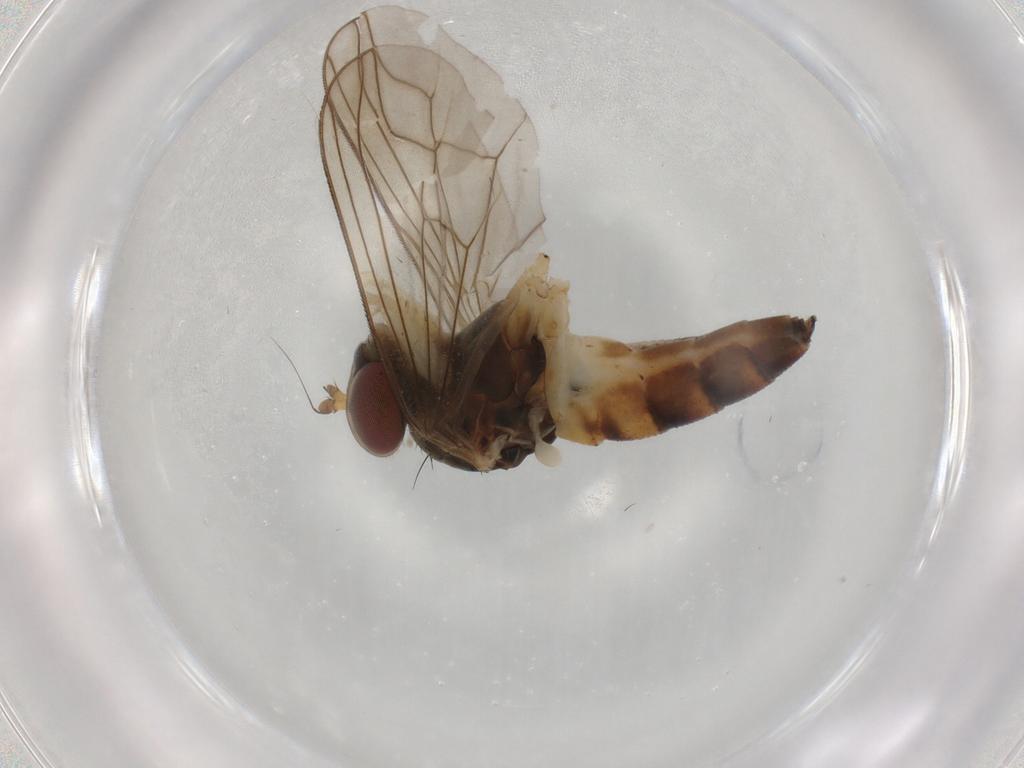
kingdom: Animalia
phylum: Arthropoda
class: Insecta
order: Diptera
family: Dolichopodidae
